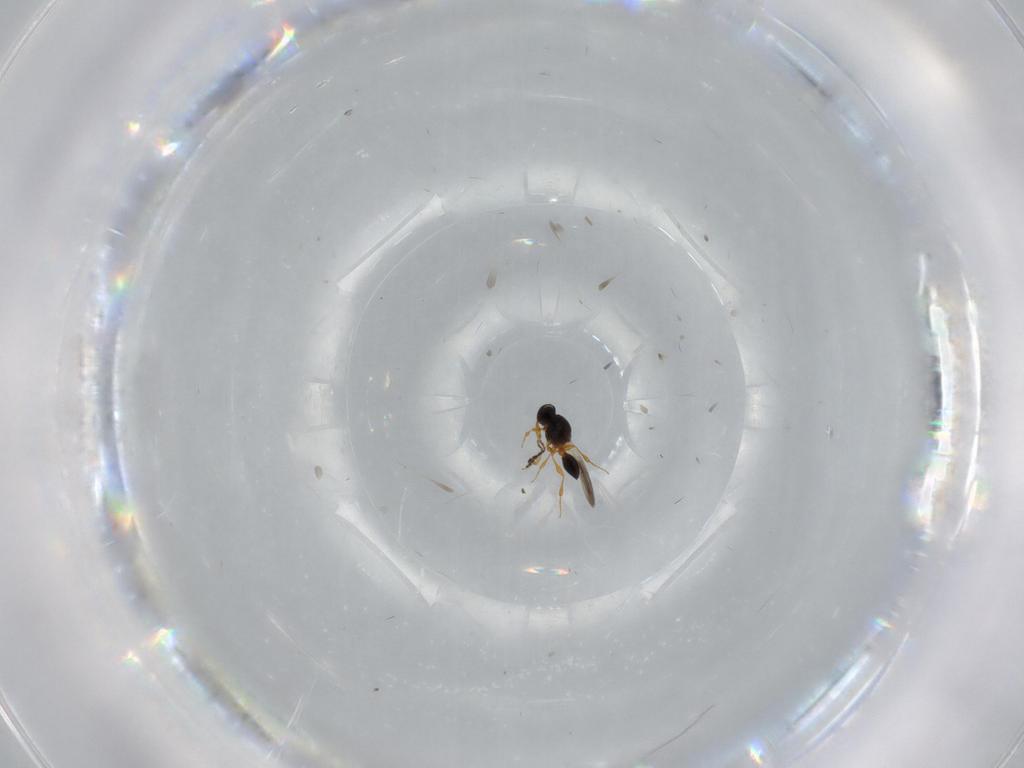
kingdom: Animalia
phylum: Arthropoda
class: Insecta
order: Hymenoptera
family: Platygastridae
